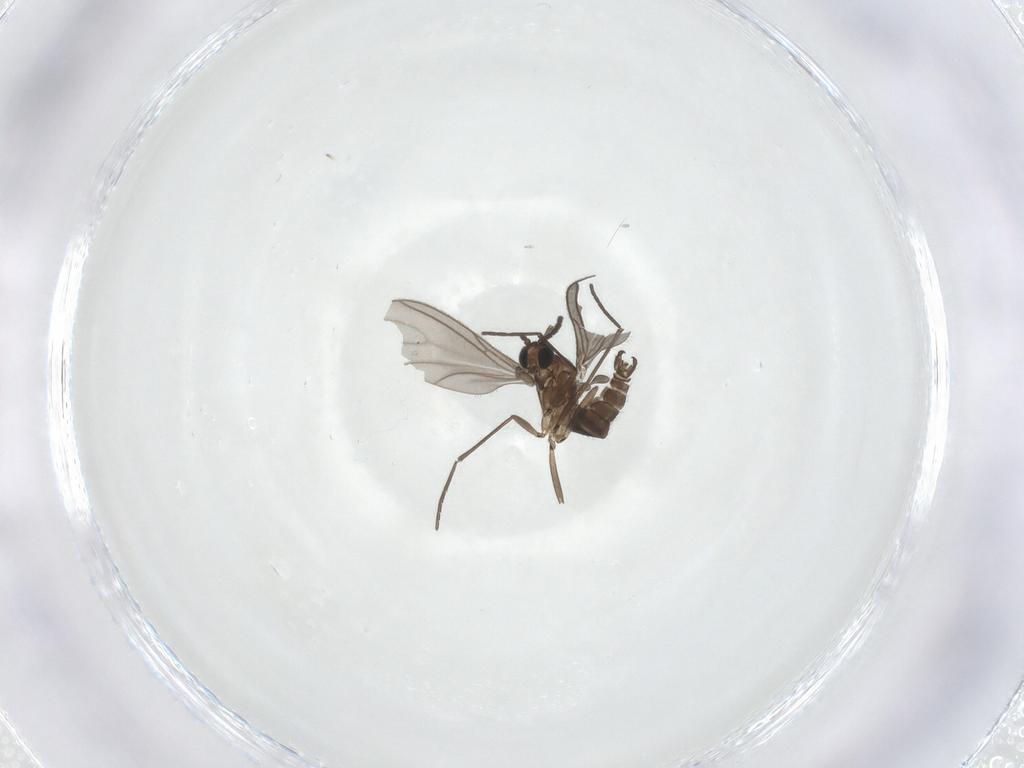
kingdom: Animalia
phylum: Arthropoda
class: Insecta
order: Diptera
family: Sciaridae
